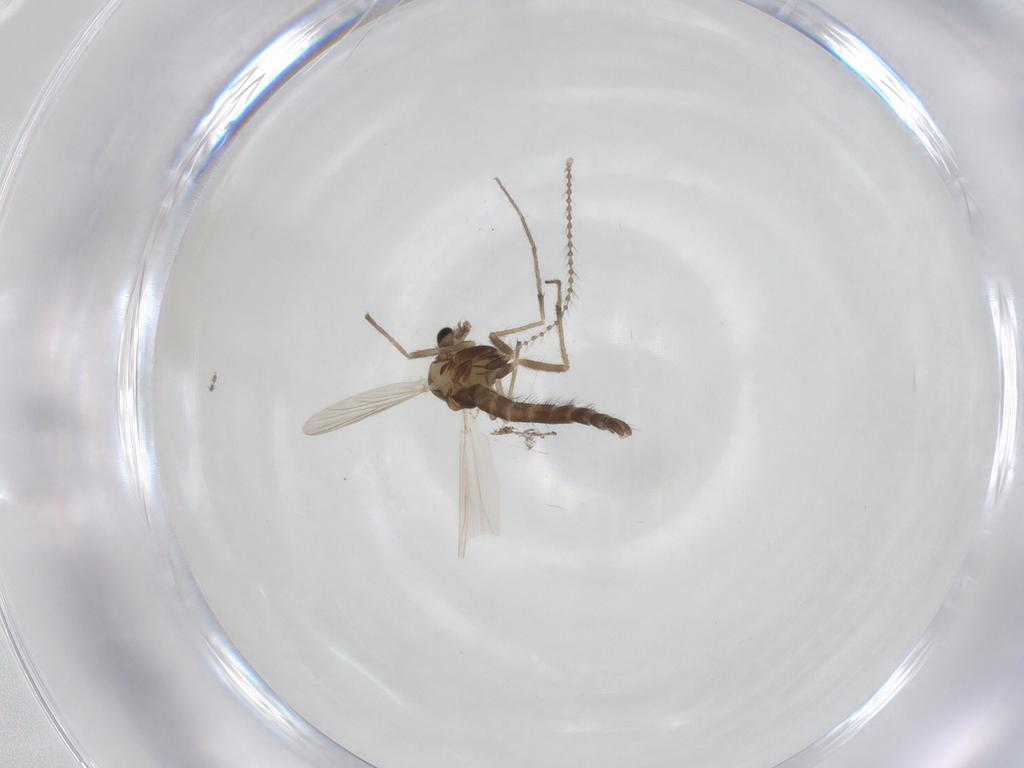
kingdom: Animalia
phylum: Arthropoda
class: Insecta
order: Diptera
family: Chironomidae
